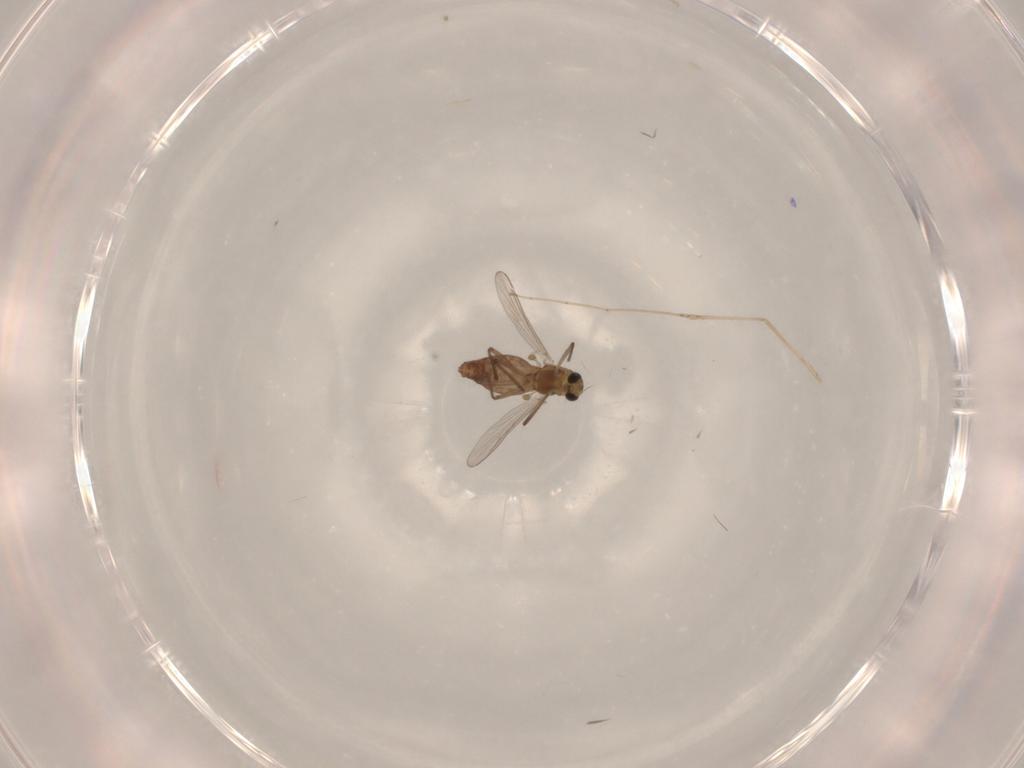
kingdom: Animalia
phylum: Arthropoda
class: Insecta
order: Diptera
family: Chironomidae
